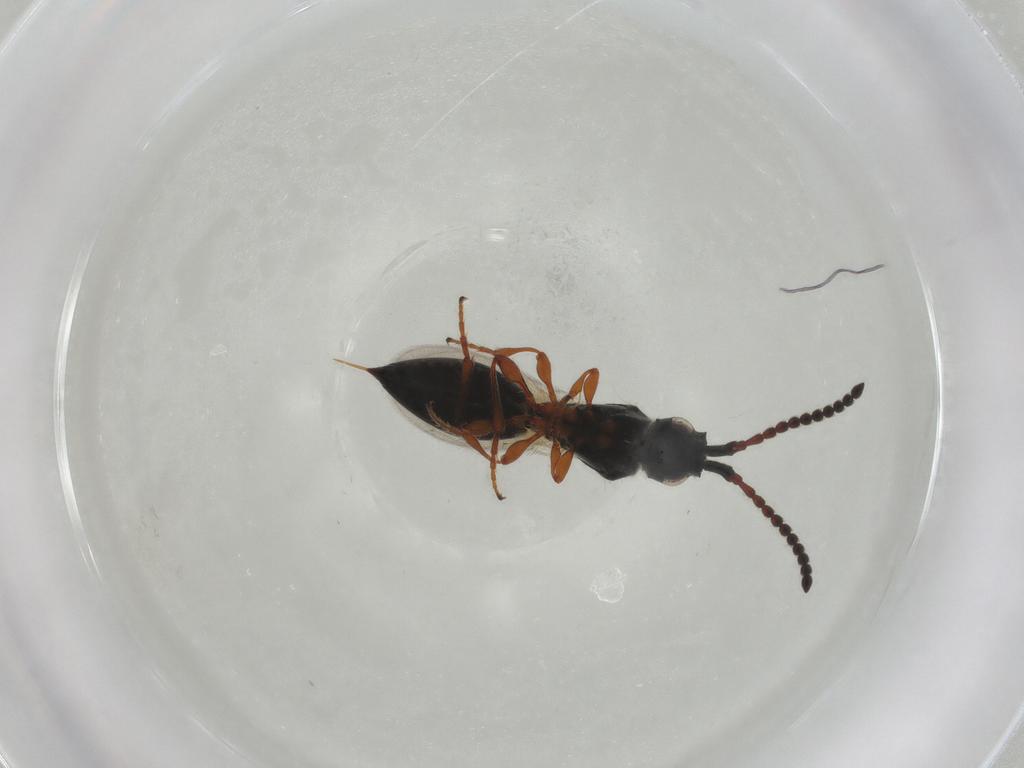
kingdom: Animalia
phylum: Arthropoda
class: Insecta
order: Hymenoptera
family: Diapriidae
